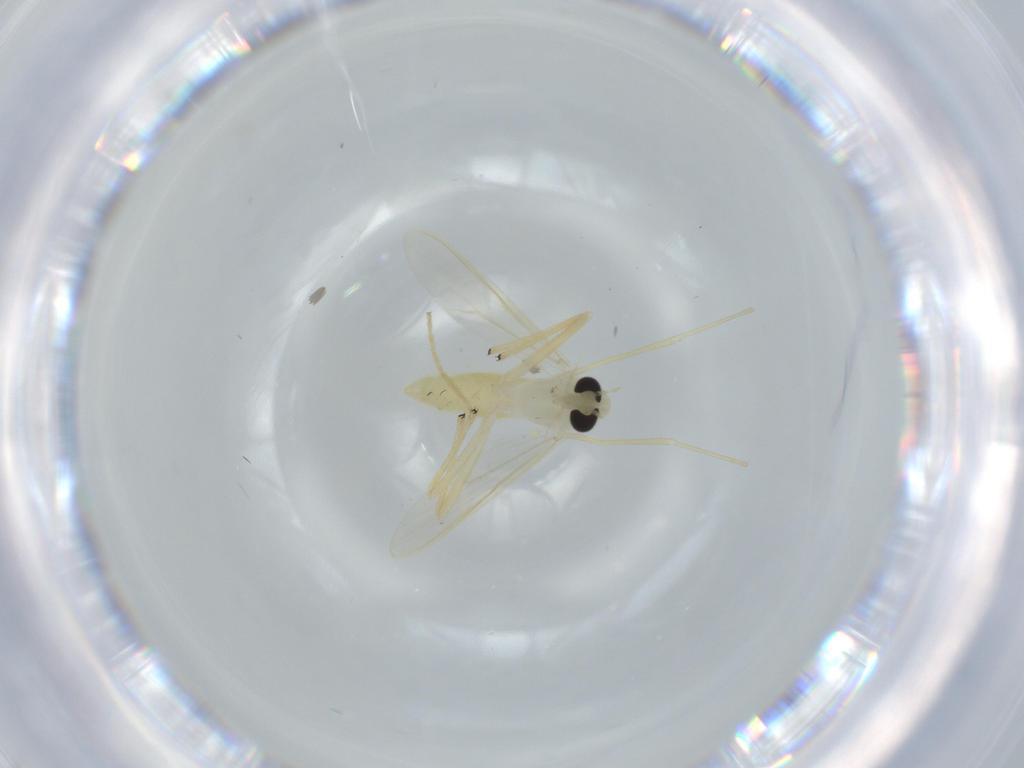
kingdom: Animalia
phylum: Arthropoda
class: Insecta
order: Diptera
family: Chironomidae
